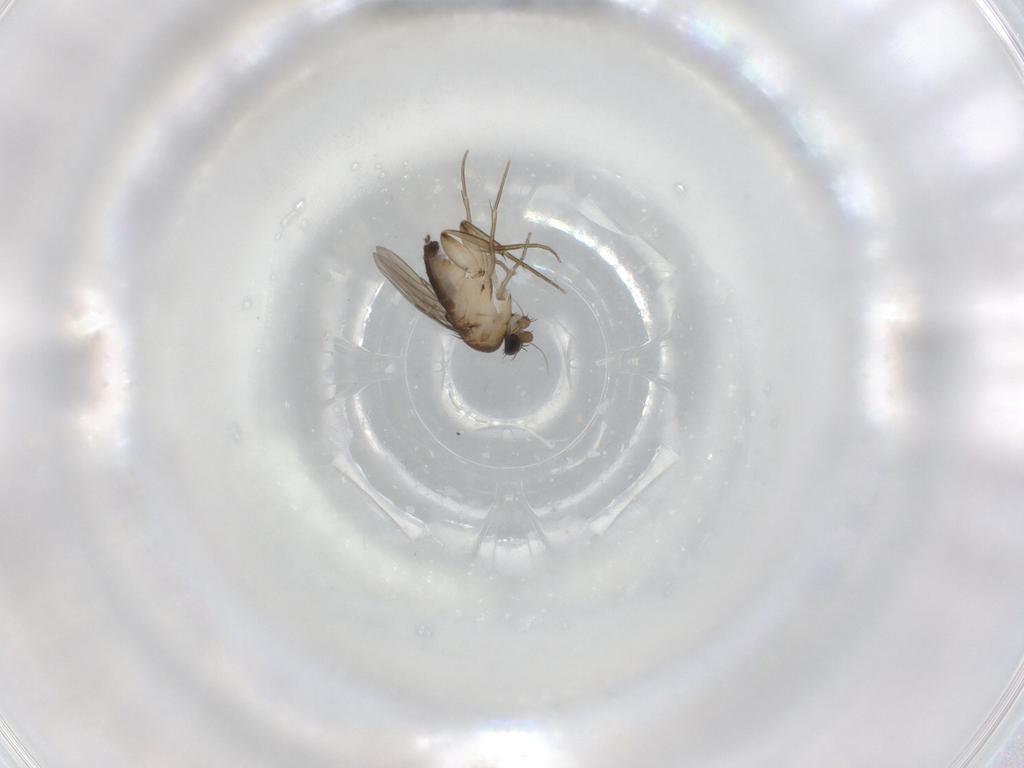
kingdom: Animalia
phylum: Arthropoda
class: Insecta
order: Diptera
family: Phoridae
